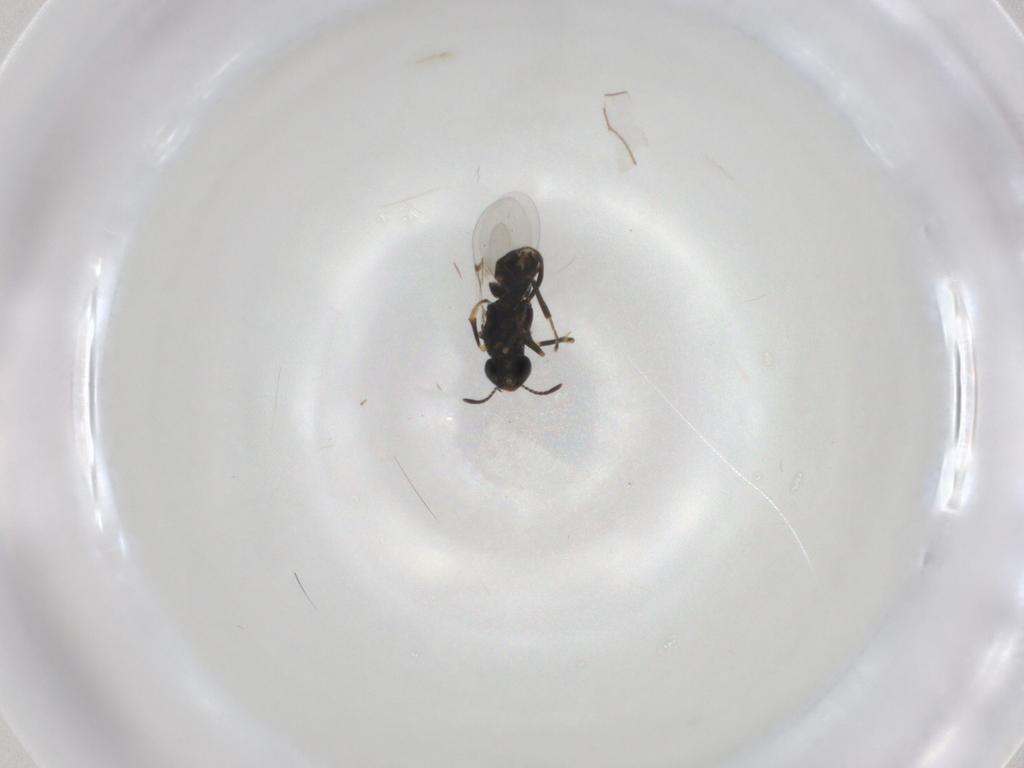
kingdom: Animalia
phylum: Arthropoda
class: Insecta
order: Hymenoptera
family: Encyrtidae
